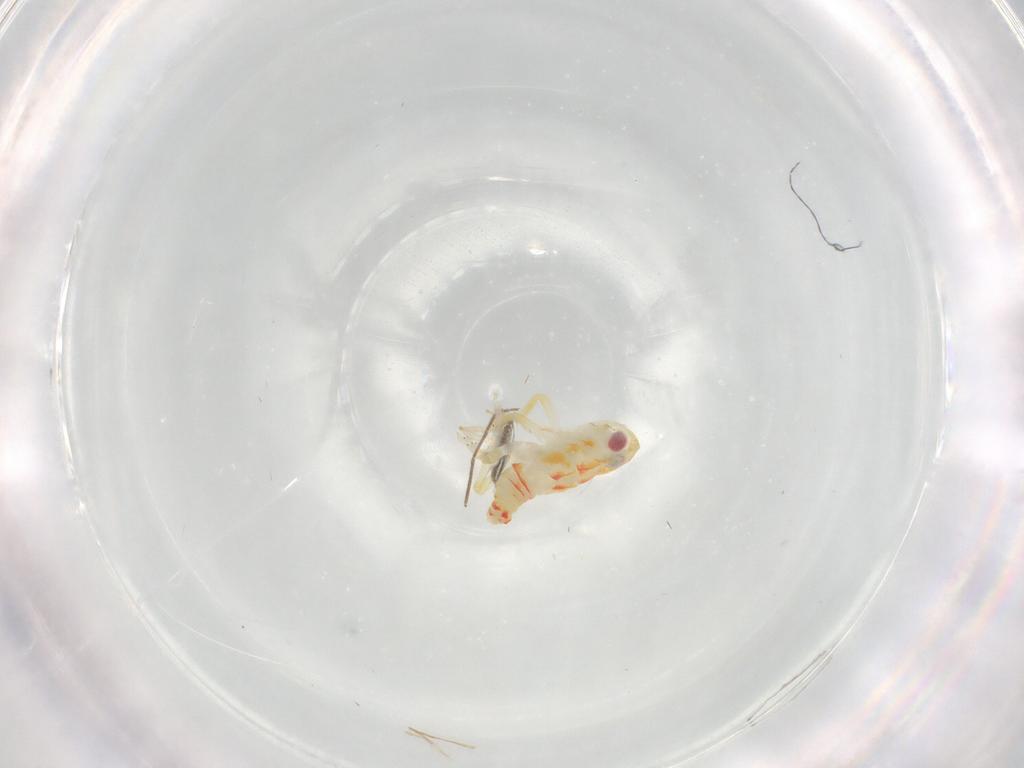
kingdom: Animalia
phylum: Arthropoda
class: Insecta
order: Hemiptera
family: Tropiduchidae
